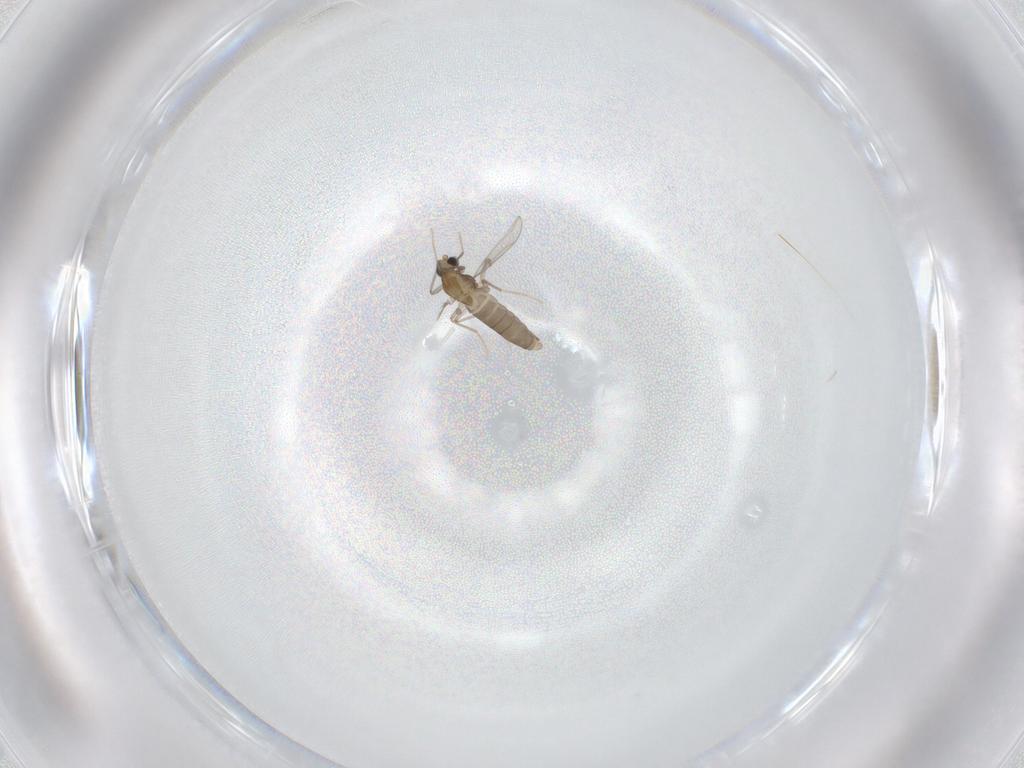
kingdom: Animalia
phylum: Arthropoda
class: Insecta
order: Diptera
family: Chironomidae
